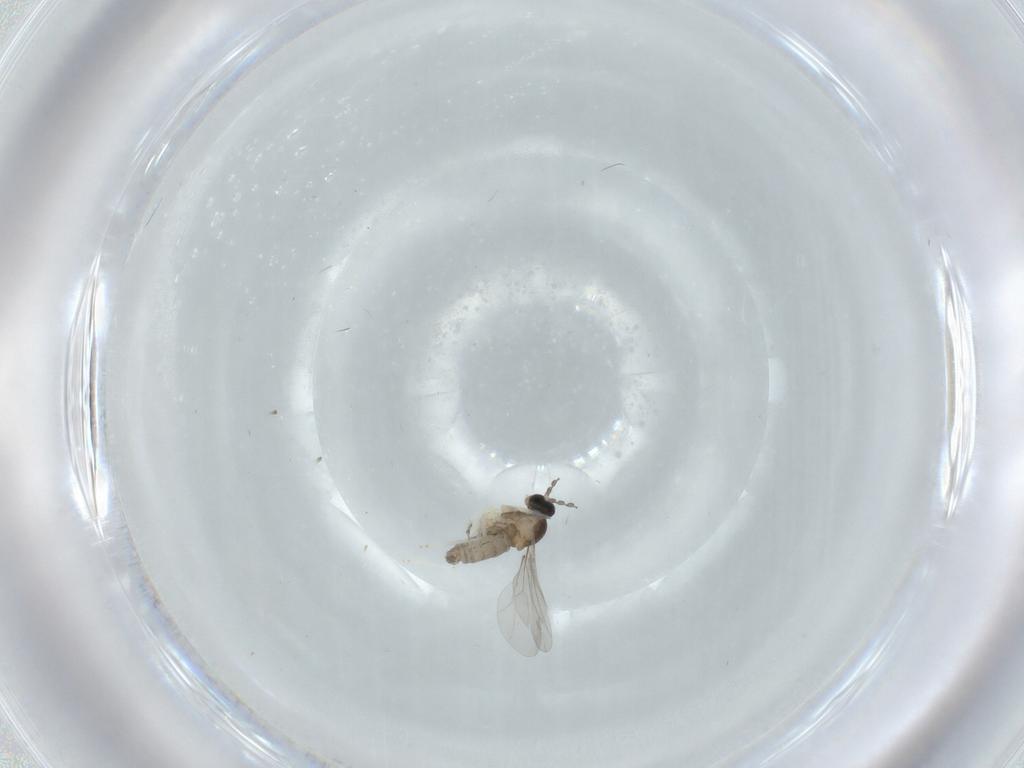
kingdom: Animalia
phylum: Arthropoda
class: Insecta
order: Diptera
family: Cecidomyiidae
